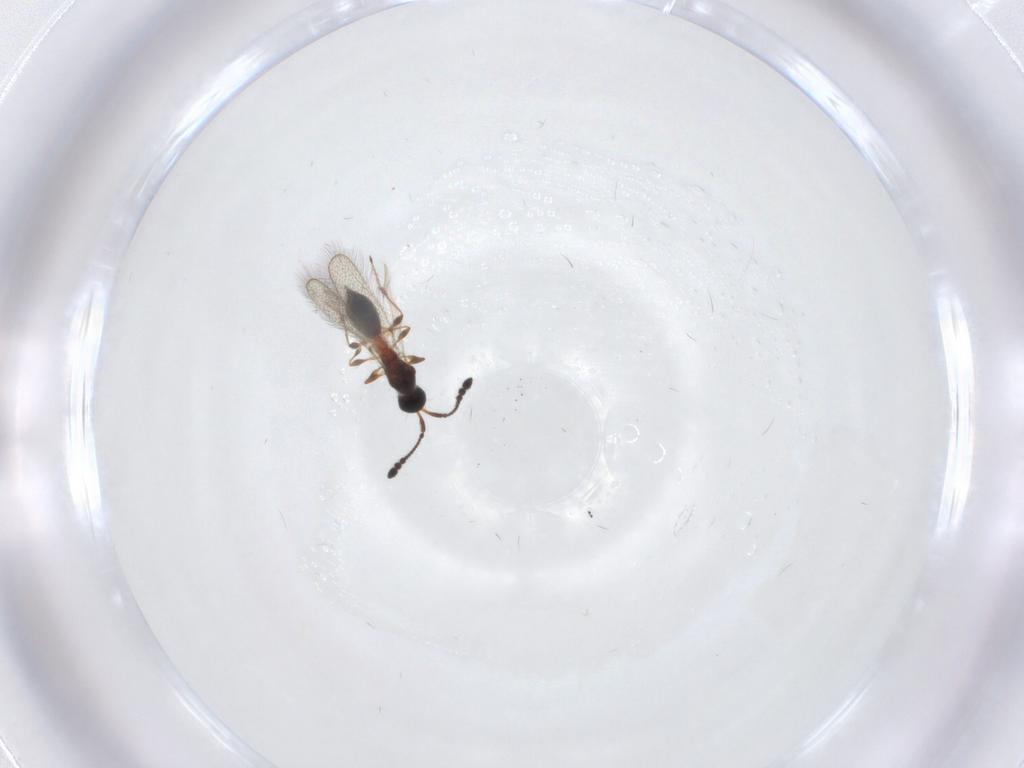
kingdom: Animalia
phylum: Arthropoda
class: Insecta
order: Hymenoptera
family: Diapriidae
